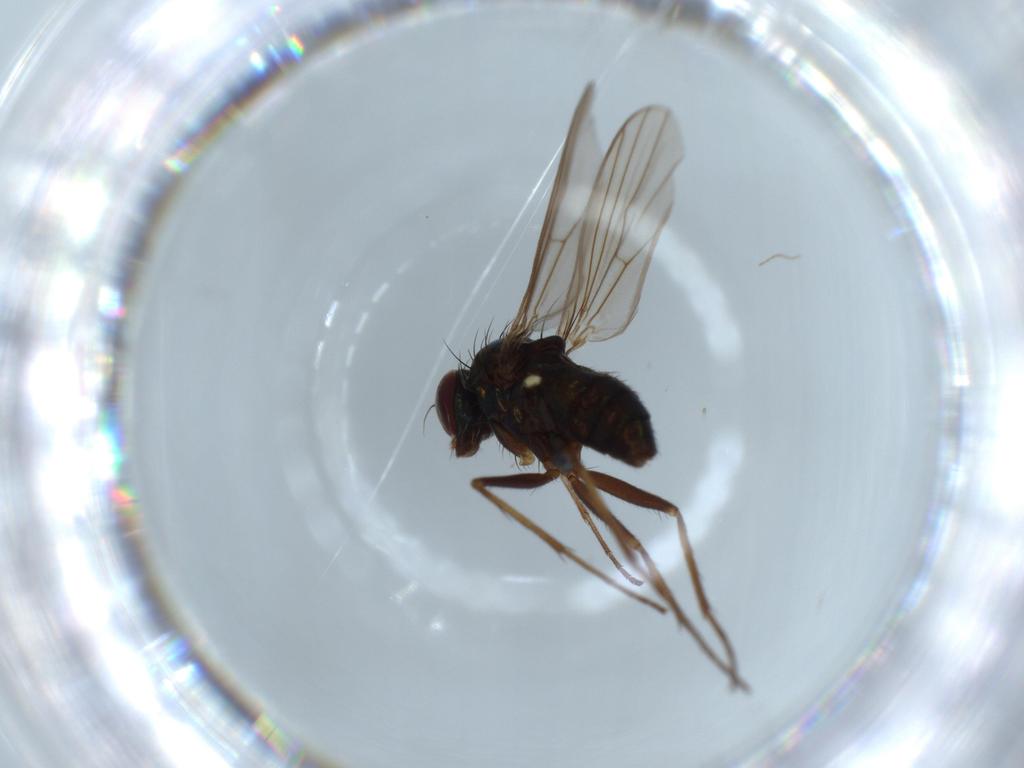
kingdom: Animalia
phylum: Arthropoda
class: Insecta
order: Diptera
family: Dolichopodidae
